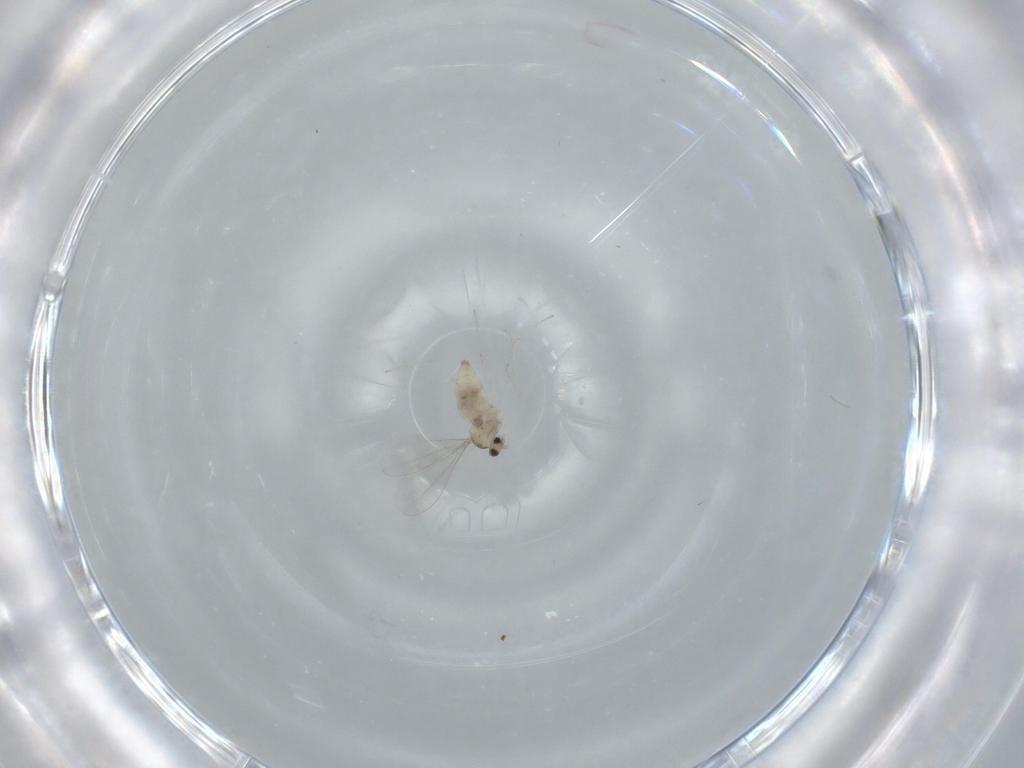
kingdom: Animalia
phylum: Arthropoda
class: Insecta
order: Diptera
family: Cecidomyiidae
